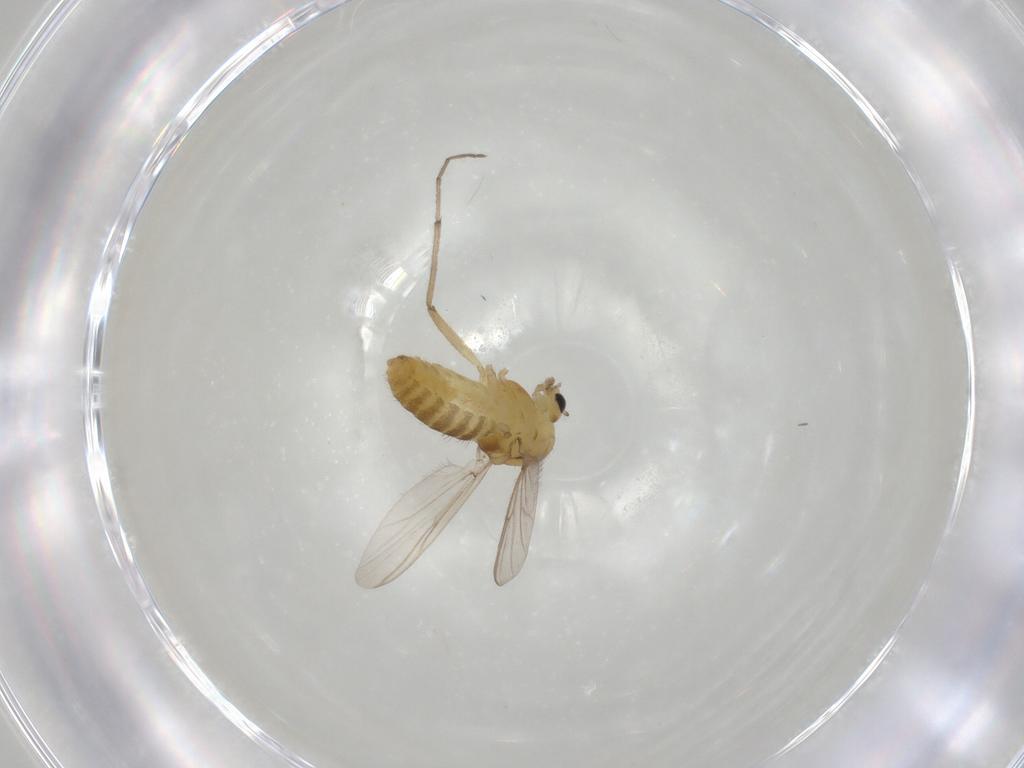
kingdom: Animalia
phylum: Arthropoda
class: Insecta
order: Diptera
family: Chironomidae
